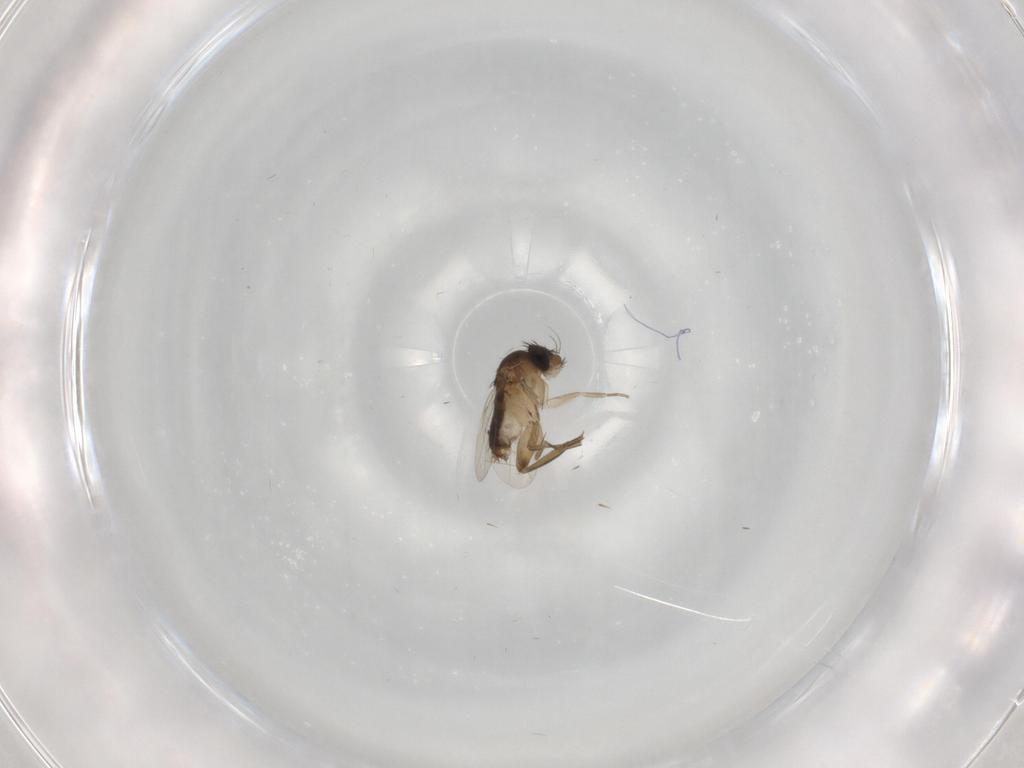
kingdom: Animalia
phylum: Arthropoda
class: Insecta
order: Diptera
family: Phoridae
